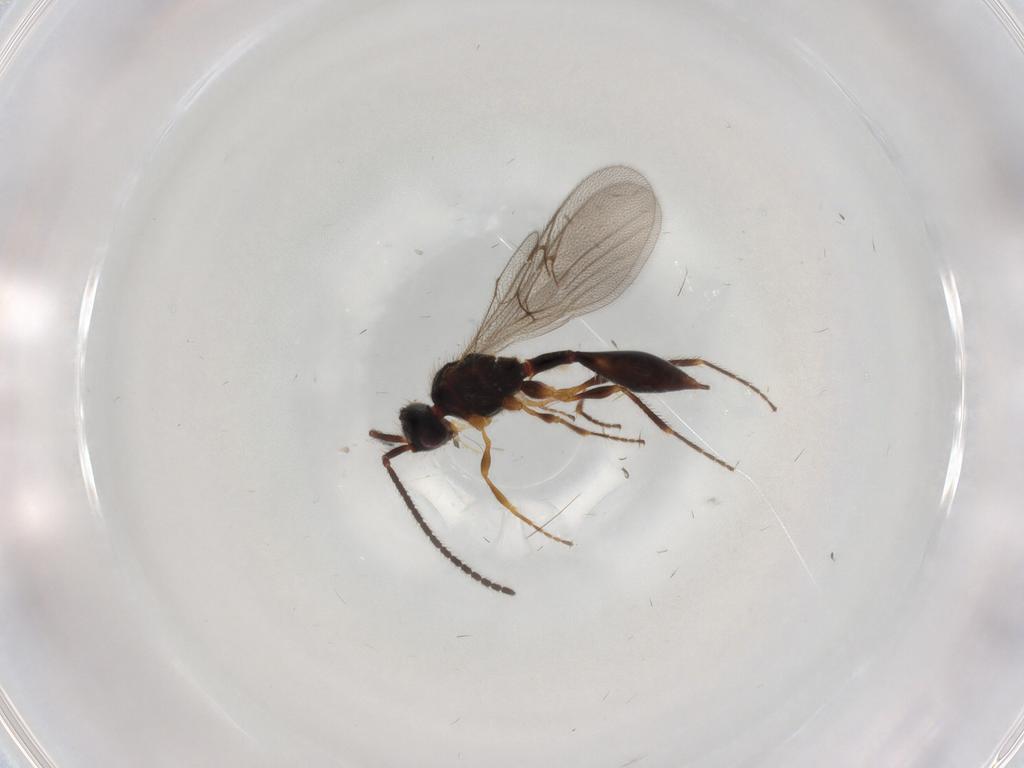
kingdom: Animalia
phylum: Arthropoda
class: Insecta
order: Hymenoptera
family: Diapriidae
